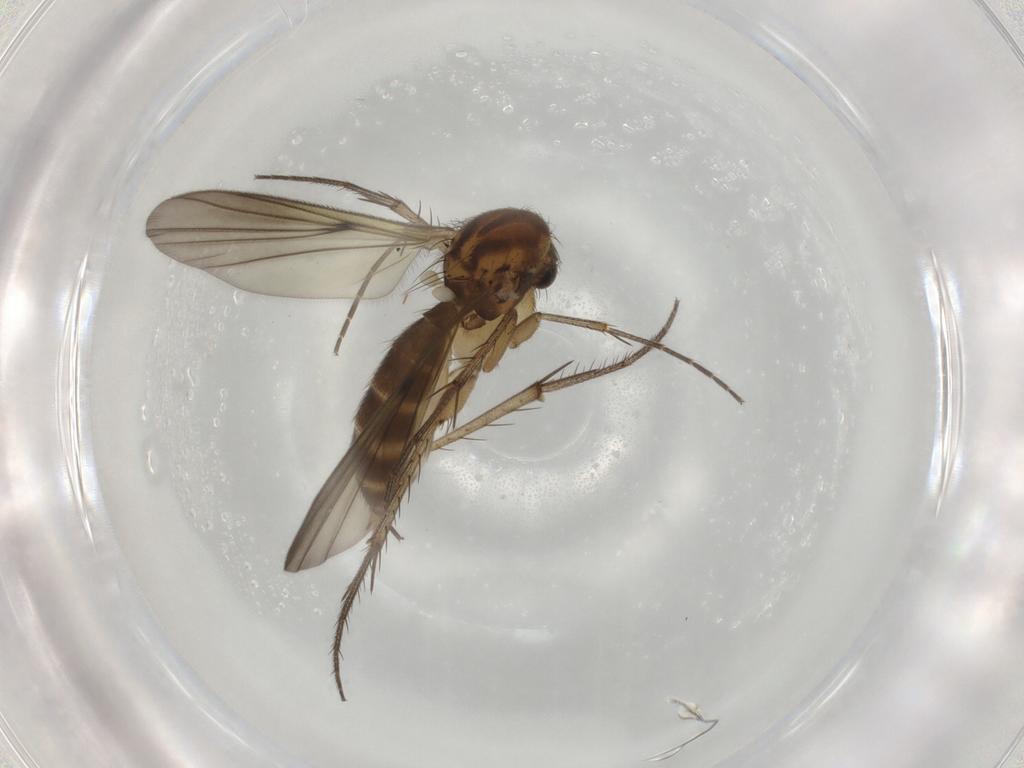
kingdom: Animalia
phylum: Arthropoda
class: Insecta
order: Diptera
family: Mycetophilidae
